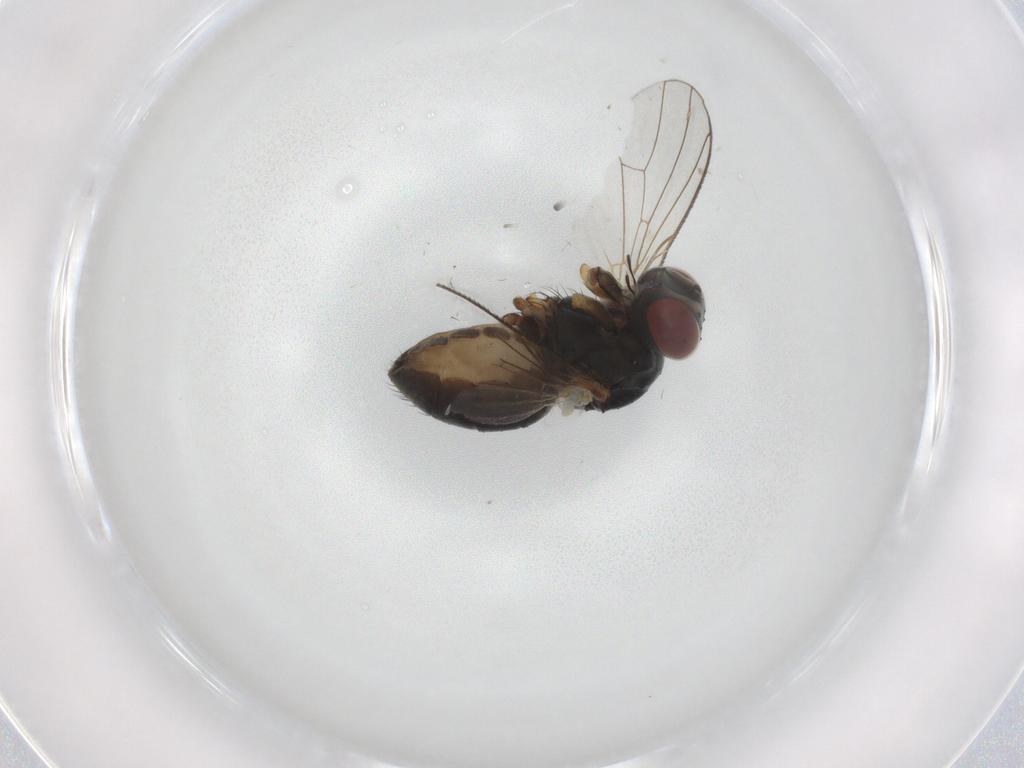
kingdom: Animalia
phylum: Arthropoda
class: Insecta
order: Diptera
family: Muscidae
